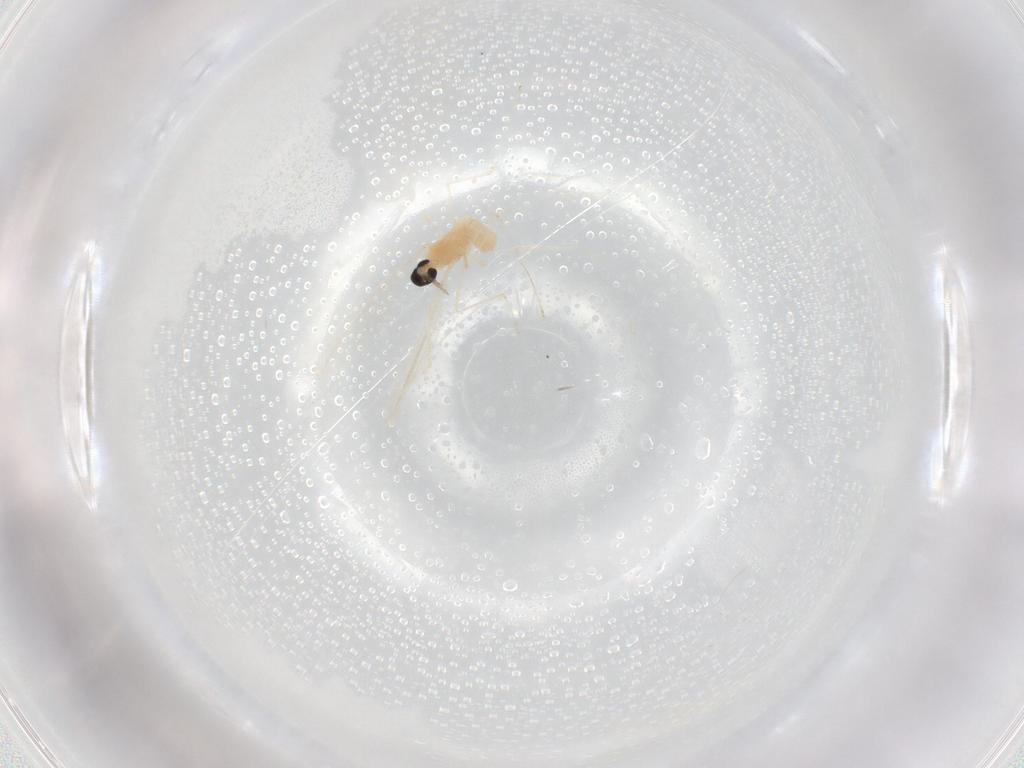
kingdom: Animalia
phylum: Arthropoda
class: Insecta
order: Diptera
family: Cecidomyiidae
